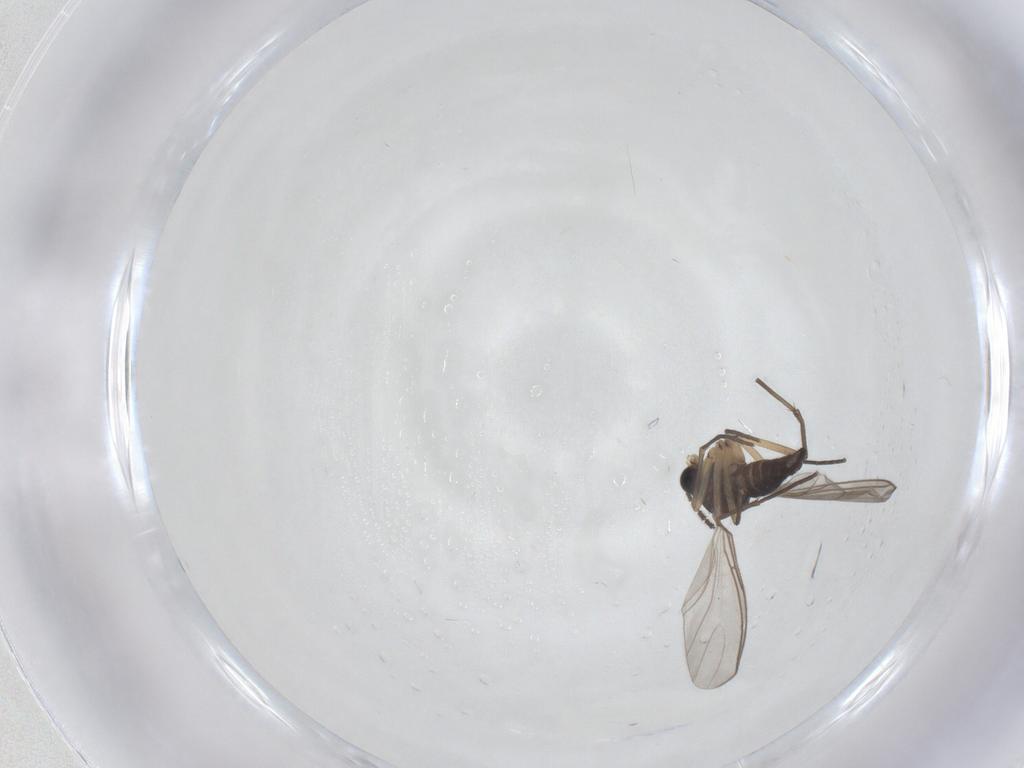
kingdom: Animalia
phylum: Arthropoda
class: Insecta
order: Diptera
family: Sciaridae
